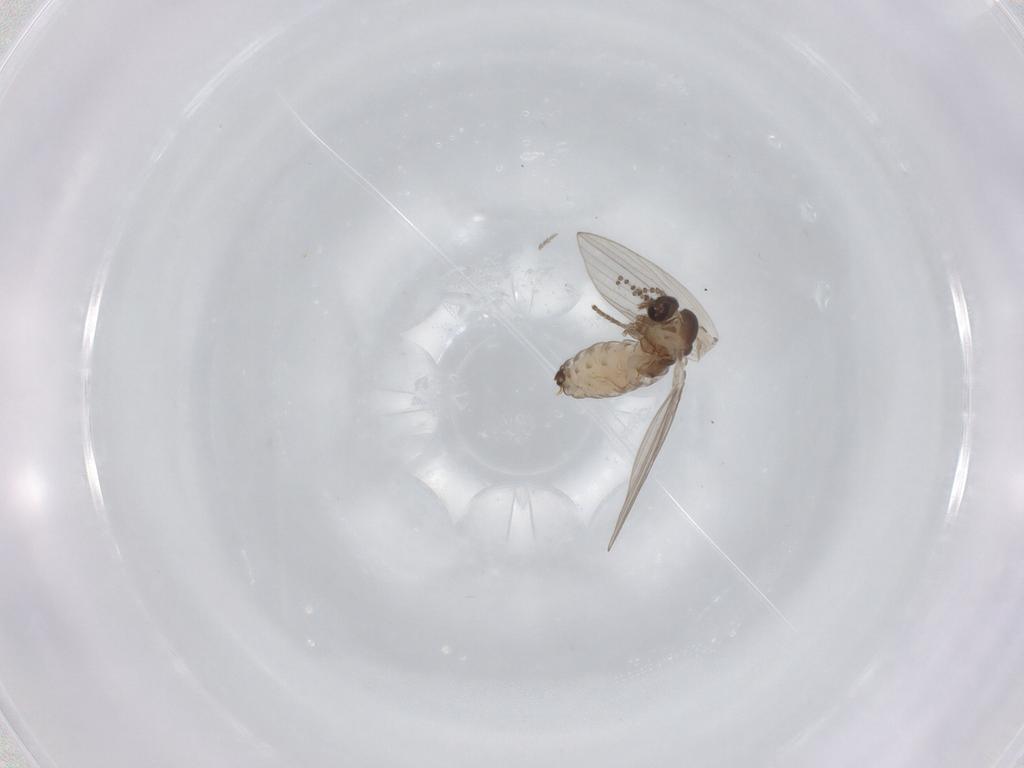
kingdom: Animalia
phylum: Arthropoda
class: Insecta
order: Diptera
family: Psychodidae
